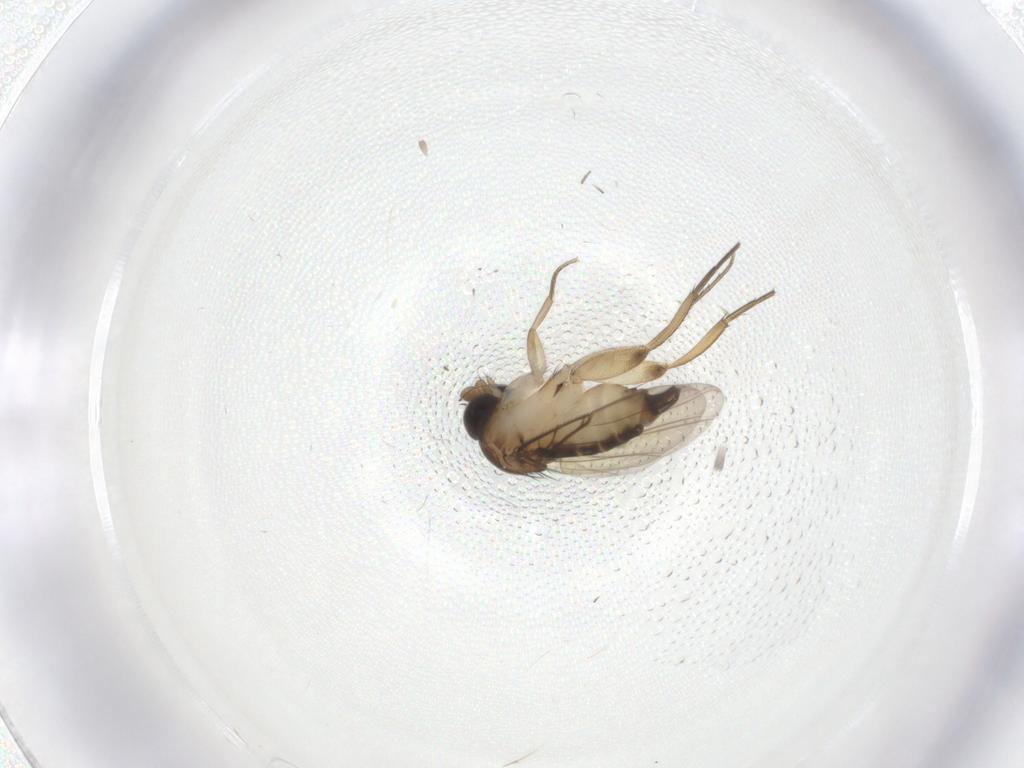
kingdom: Animalia
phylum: Arthropoda
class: Insecta
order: Diptera
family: Phoridae
